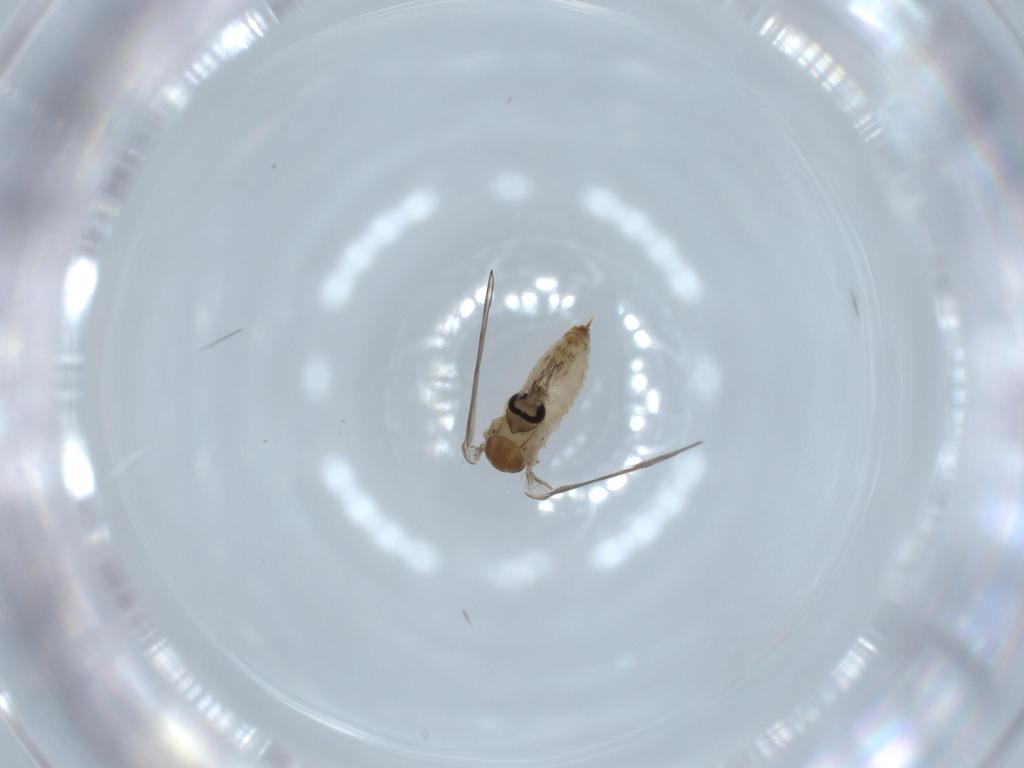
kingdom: Animalia
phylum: Arthropoda
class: Insecta
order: Diptera
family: Psychodidae
